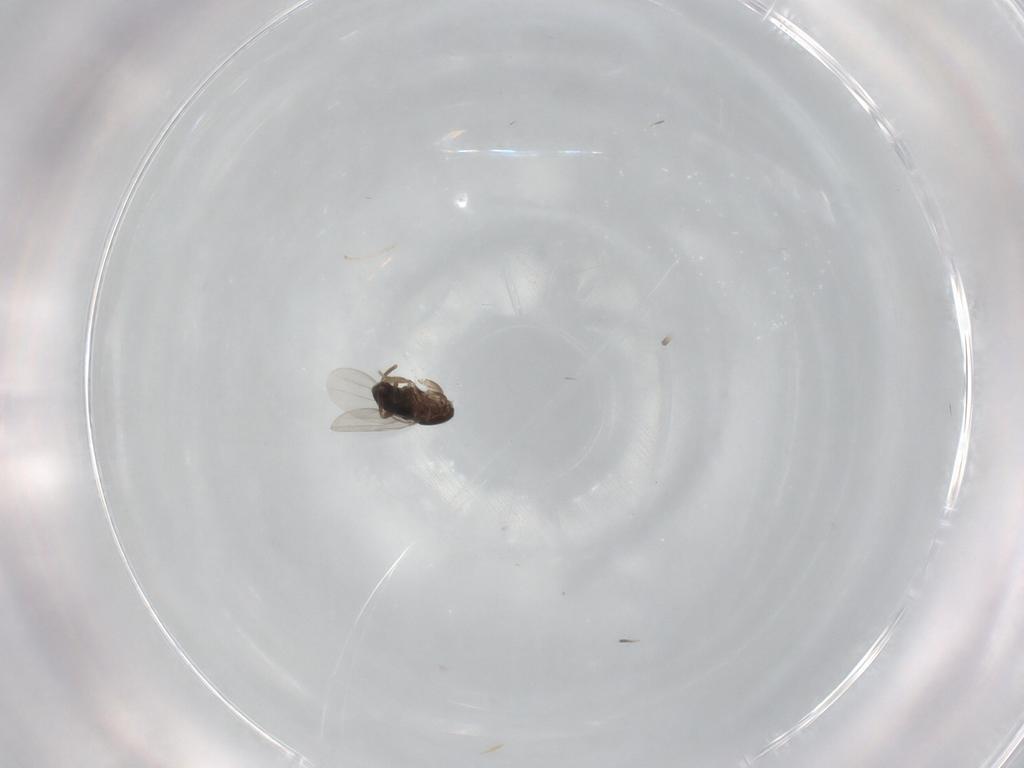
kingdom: Animalia
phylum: Arthropoda
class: Insecta
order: Diptera
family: Phoridae
